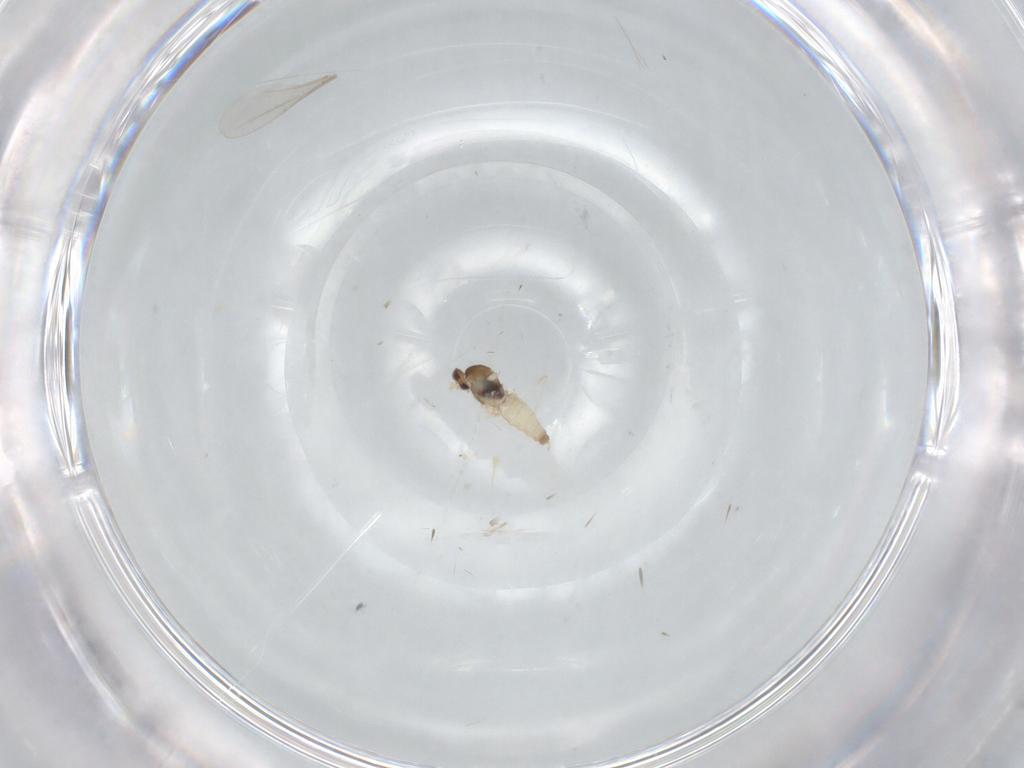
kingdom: Animalia
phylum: Arthropoda
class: Insecta
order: Diptera
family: Cecidomyiidae
